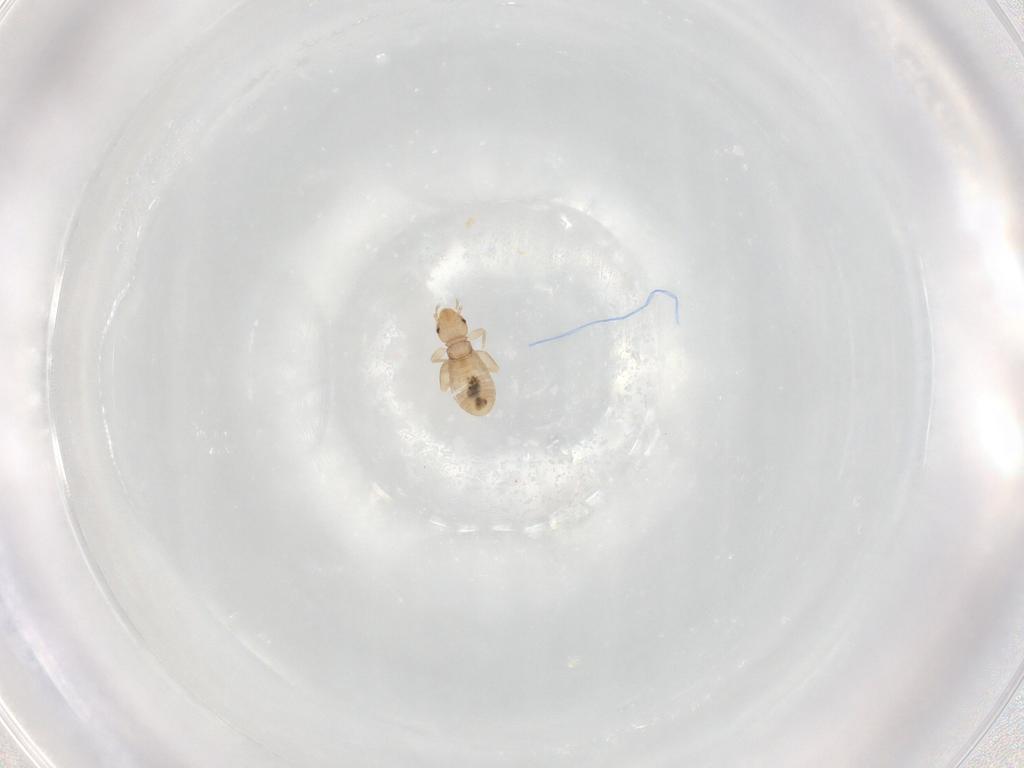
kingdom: Animalia
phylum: Arthropoda
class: Insecta
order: Psocodea
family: Liposcelididae
